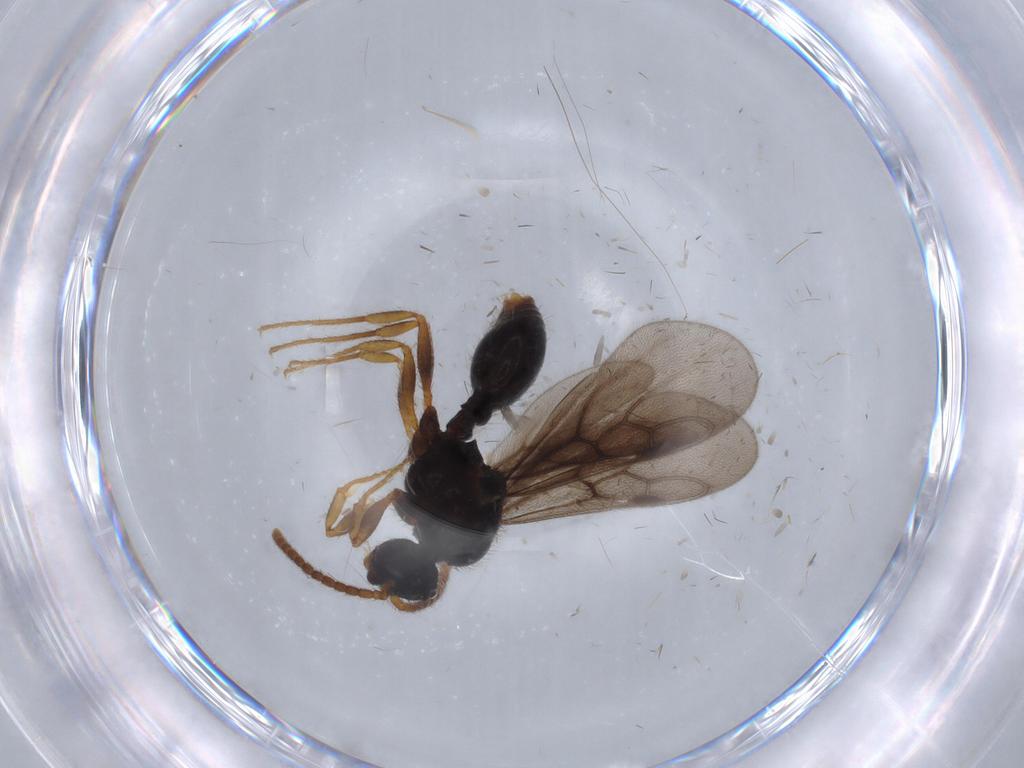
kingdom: Animalia
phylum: Arthropoda
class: Insecta
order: Hymenoptera
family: Formicidae
